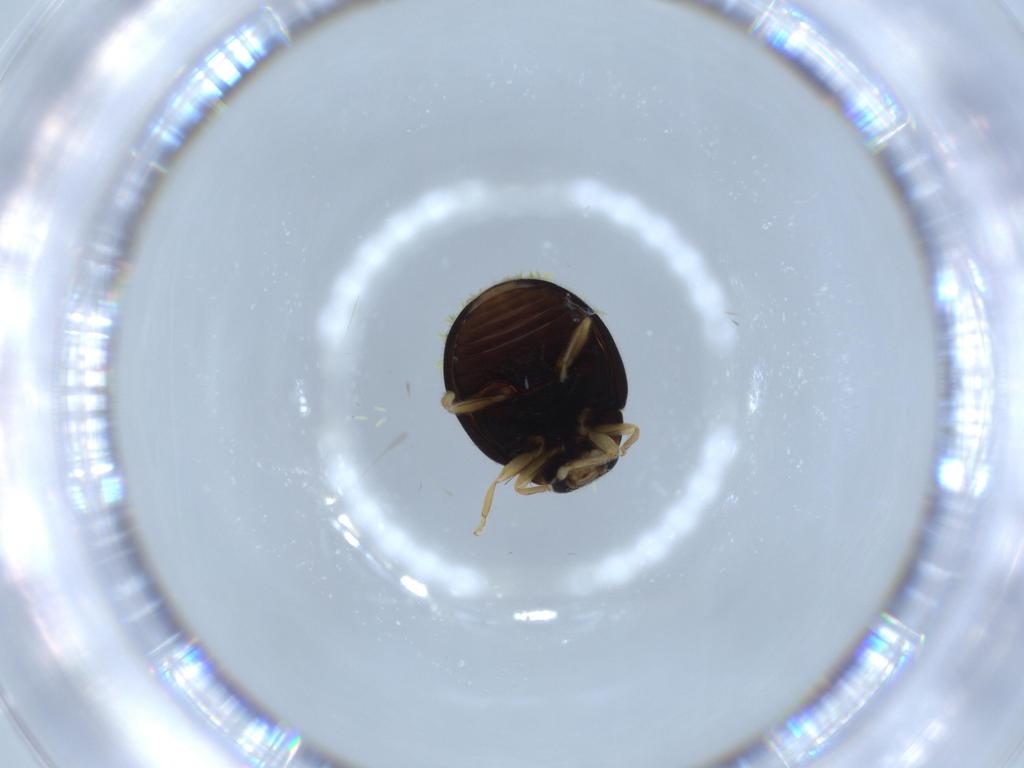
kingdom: Animalia
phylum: Arthropoda
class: Insecta
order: Coleoptera
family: Coccinellidae
